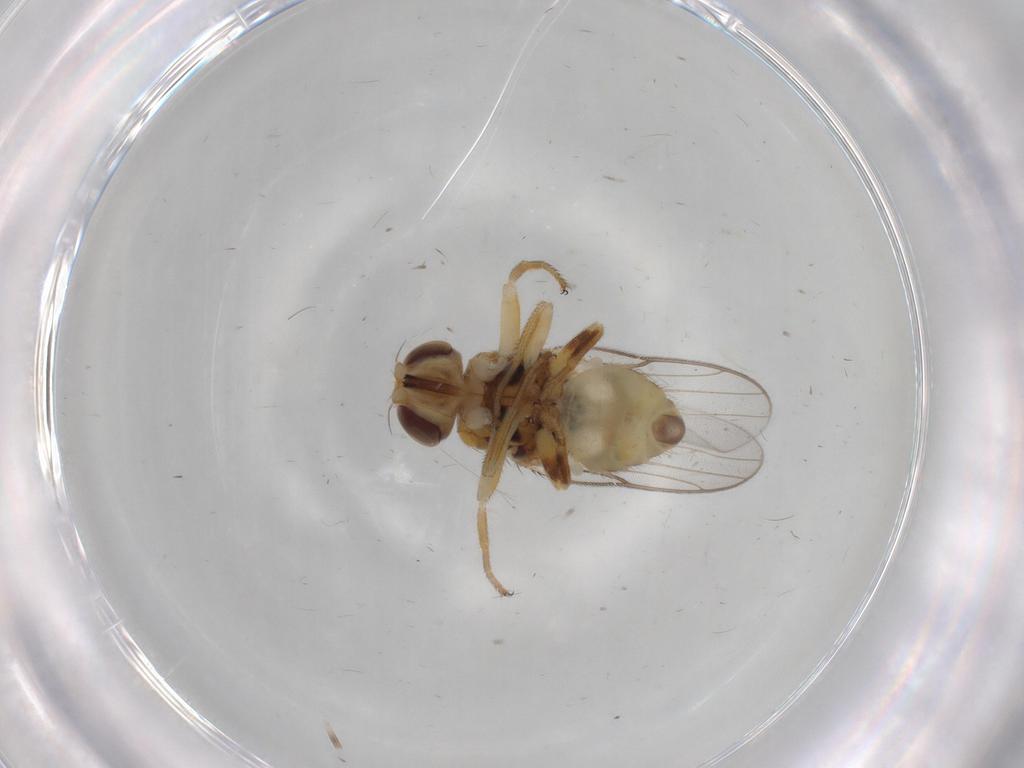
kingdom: Animalia
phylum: Arthropoda
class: Insecta
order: Diptera
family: Chloropidae
